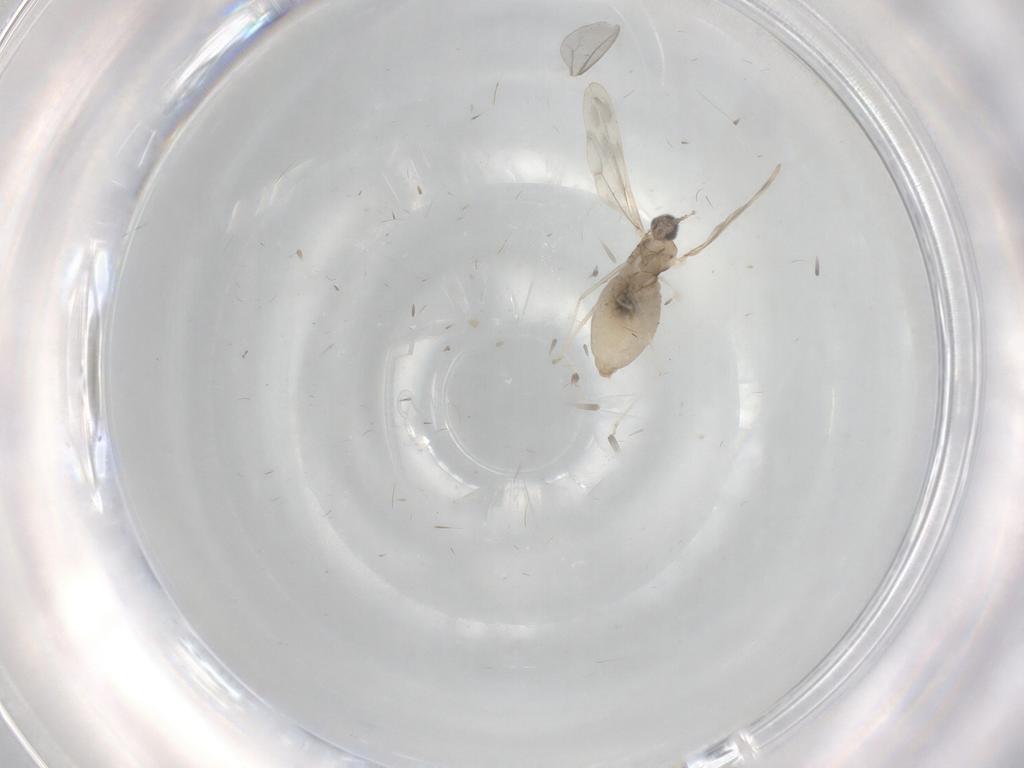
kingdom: Animalia
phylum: Arthropoda
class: Insecta
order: Diptera
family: Cecidomyiidae
